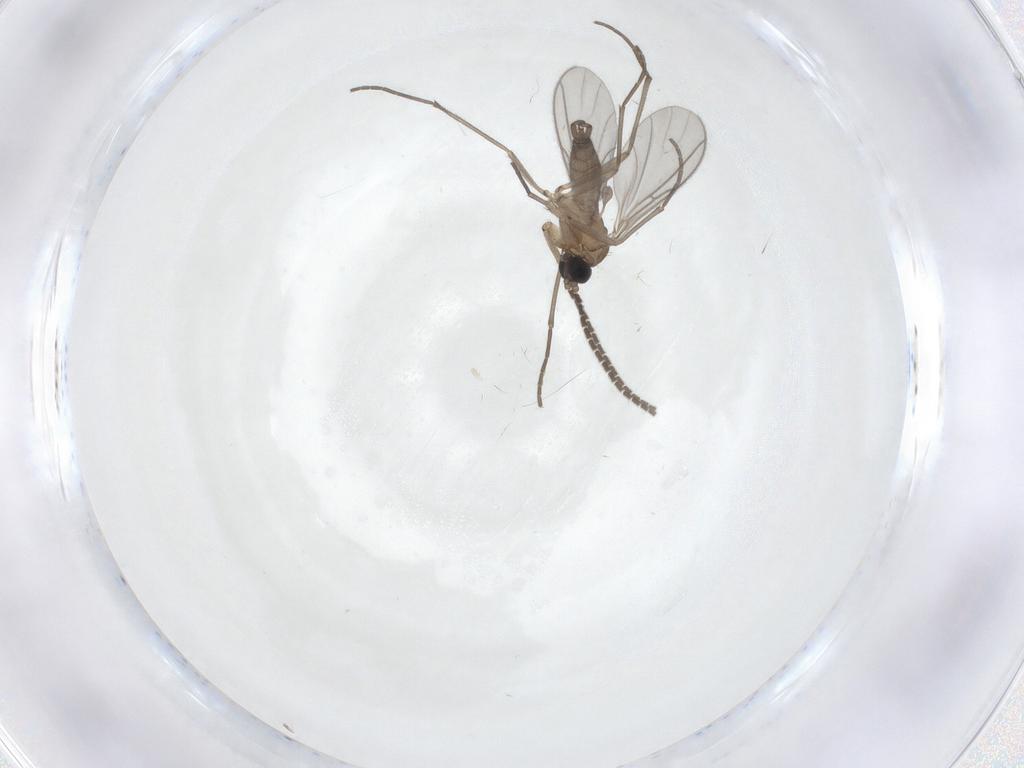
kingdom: Animalia
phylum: Arthropoda
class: Insecta
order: Diptera
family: Sciaridae
